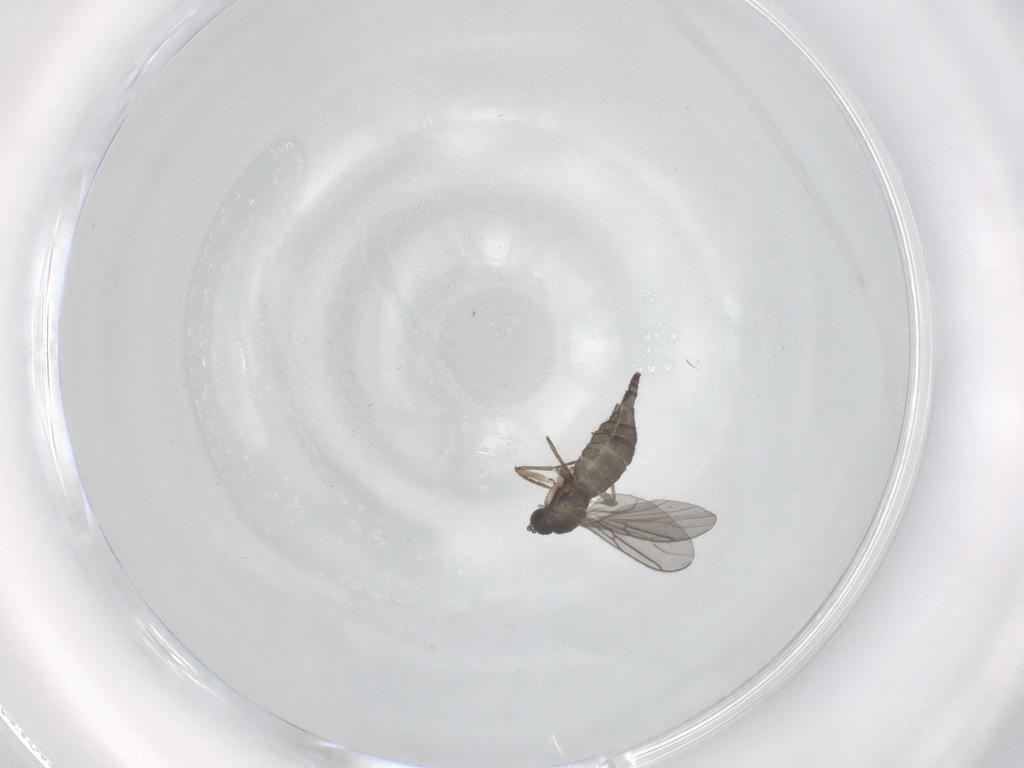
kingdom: Animalia
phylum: Arthropoda
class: Insecta
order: Diptera
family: Sciaridae
